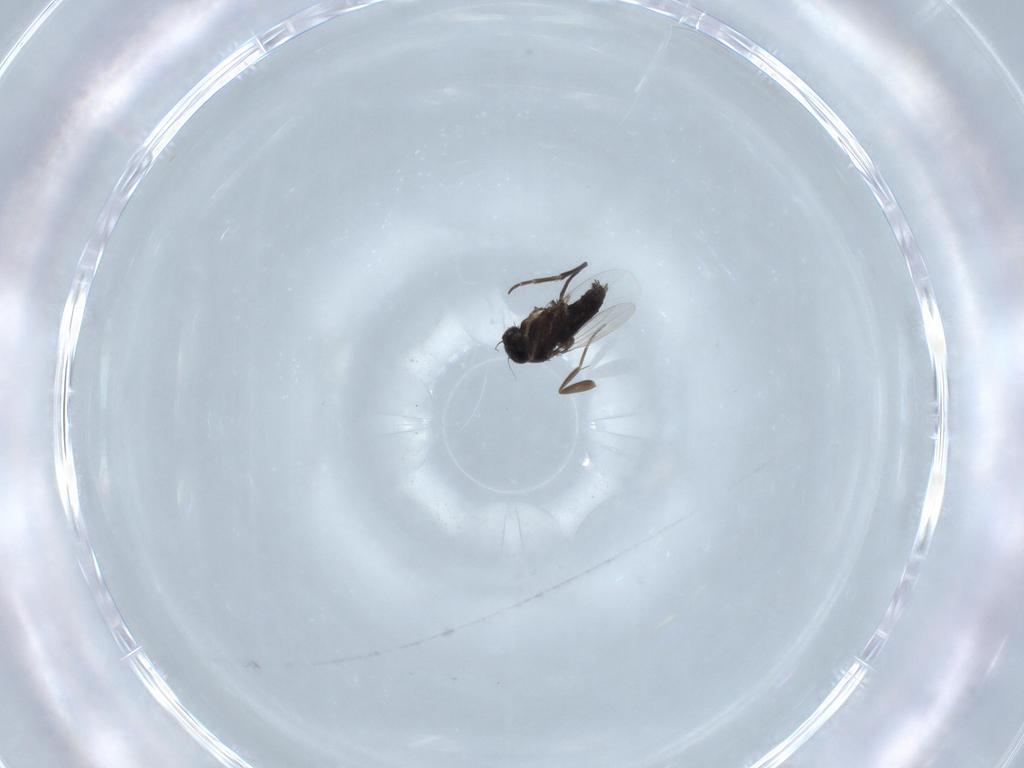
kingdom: Animalia
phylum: Arthropoda
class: Insecta
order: Diptera
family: Phoridae
